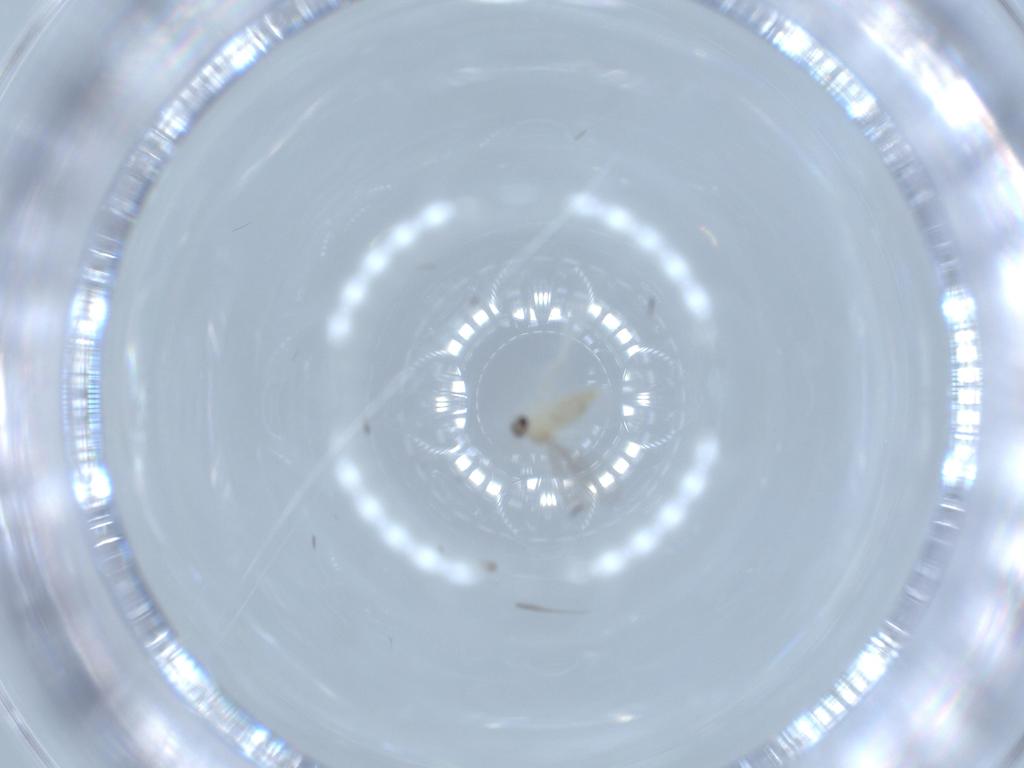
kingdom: Animalia
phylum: Arthropoda
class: Insecta
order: Diptera
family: Cecidomyiidae
